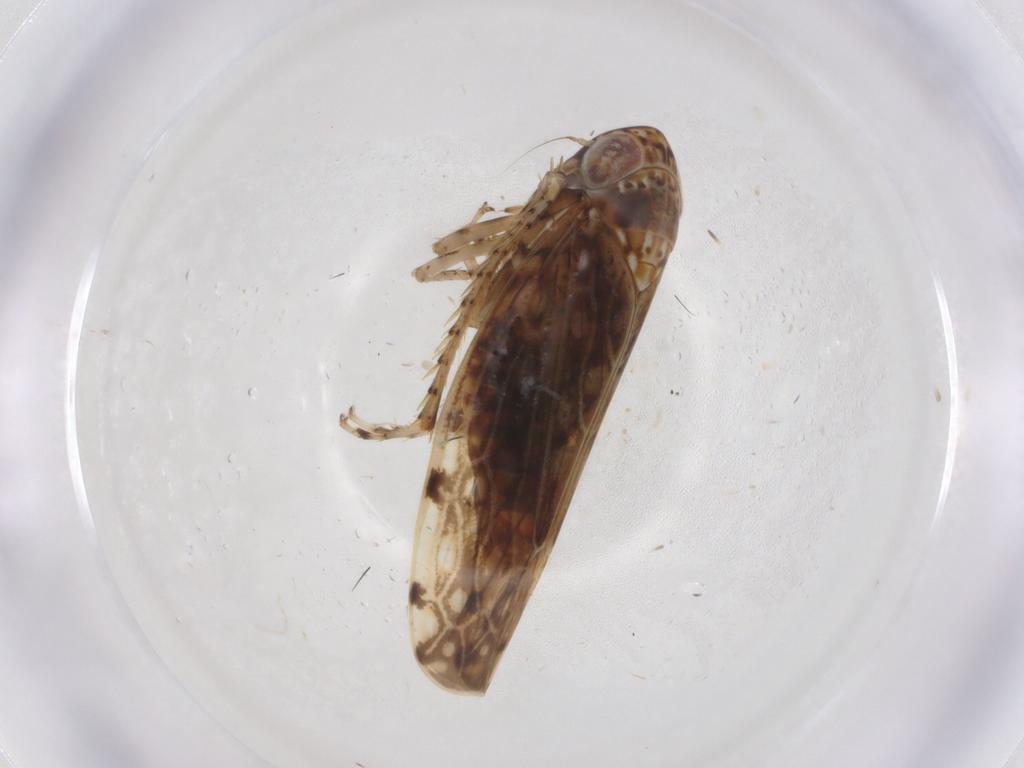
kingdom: Animalia
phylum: Arthropoda
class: Insecta
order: Hemiptera
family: Cicadellidae
